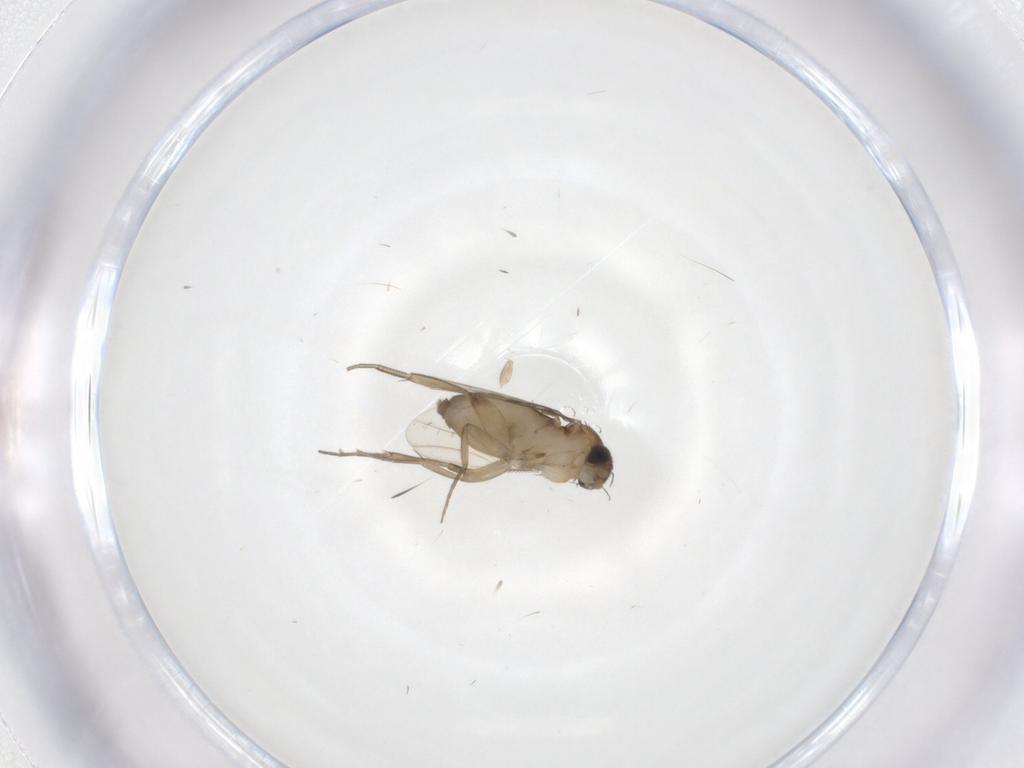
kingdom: Animalia
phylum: Arthropoda
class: Insecta
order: Diptera
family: Phoridae
